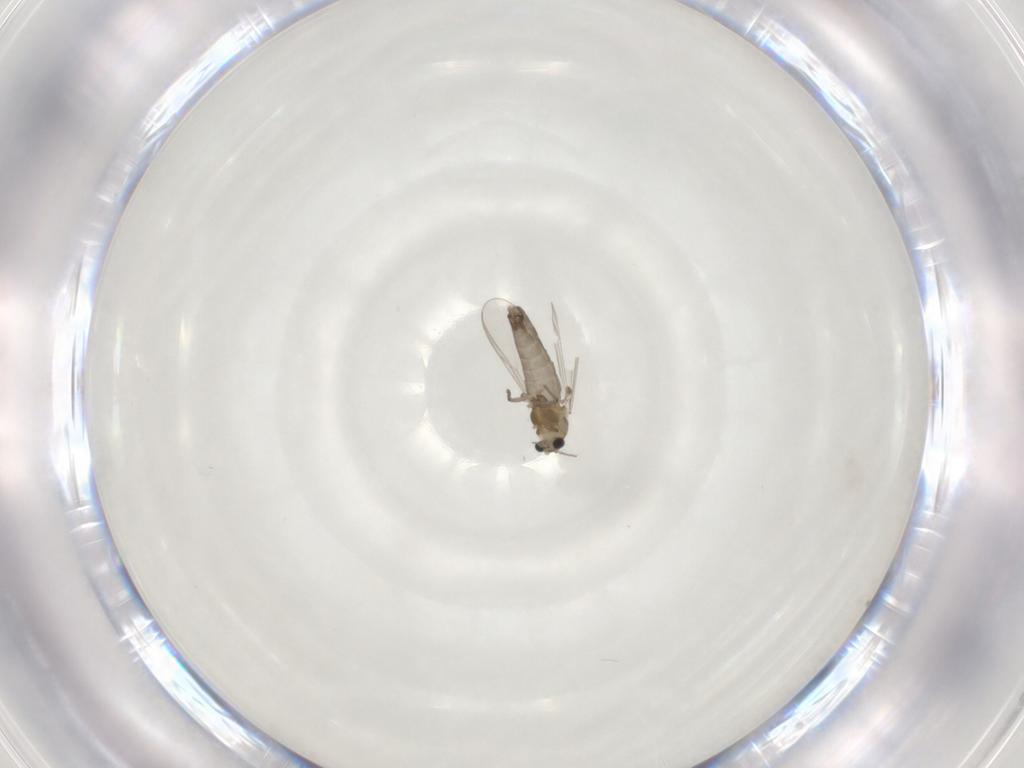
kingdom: Animalia
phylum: Arthropoda
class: Insecta
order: Diptera
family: Chironomidae
